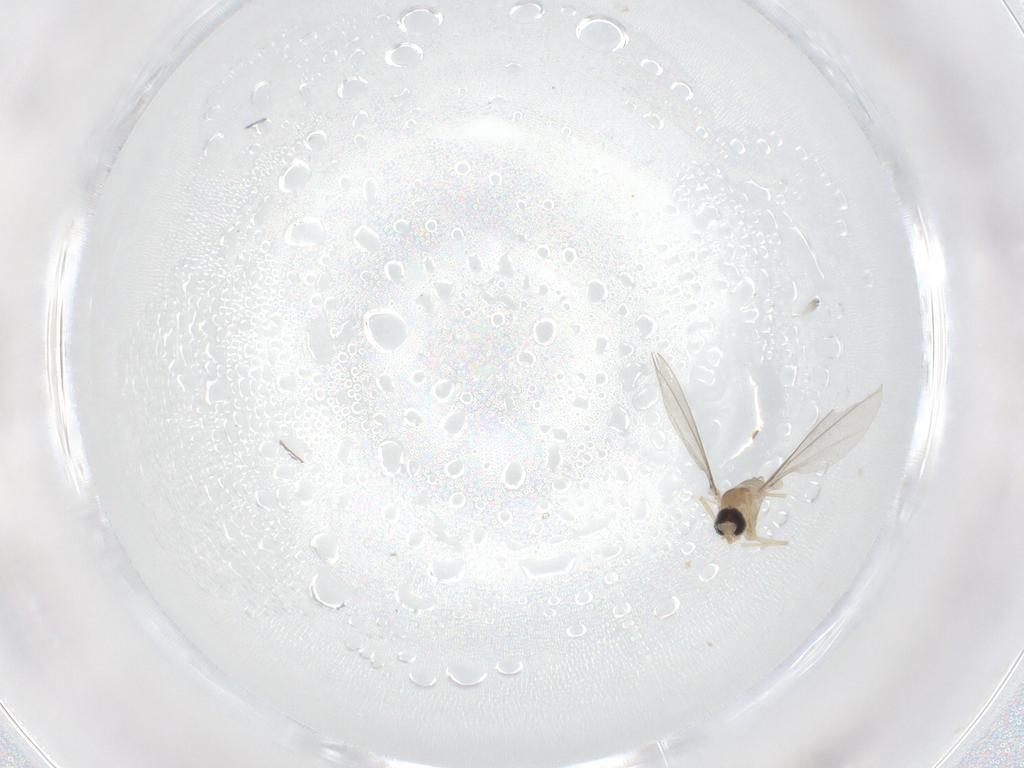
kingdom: Animalia
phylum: Arthropoda
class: Insecta
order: Diptera
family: Cecidomyiidae
